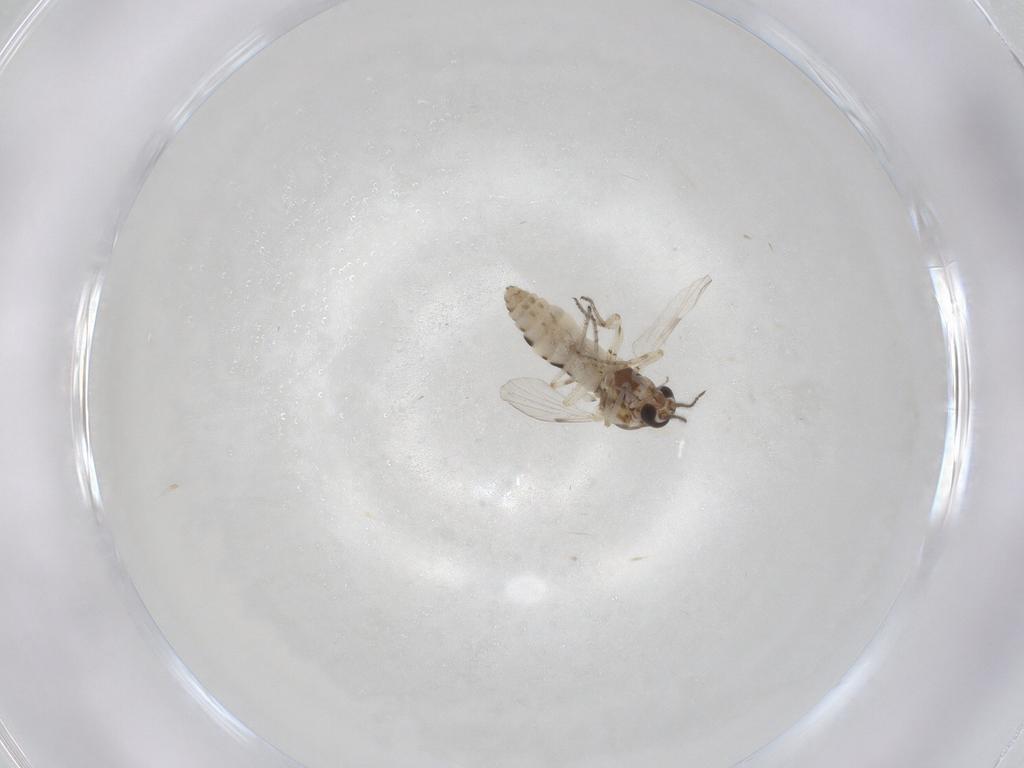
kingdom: Animalia
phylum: Arthropoda
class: Insecta
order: Diptera
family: Ceratopogonidae
